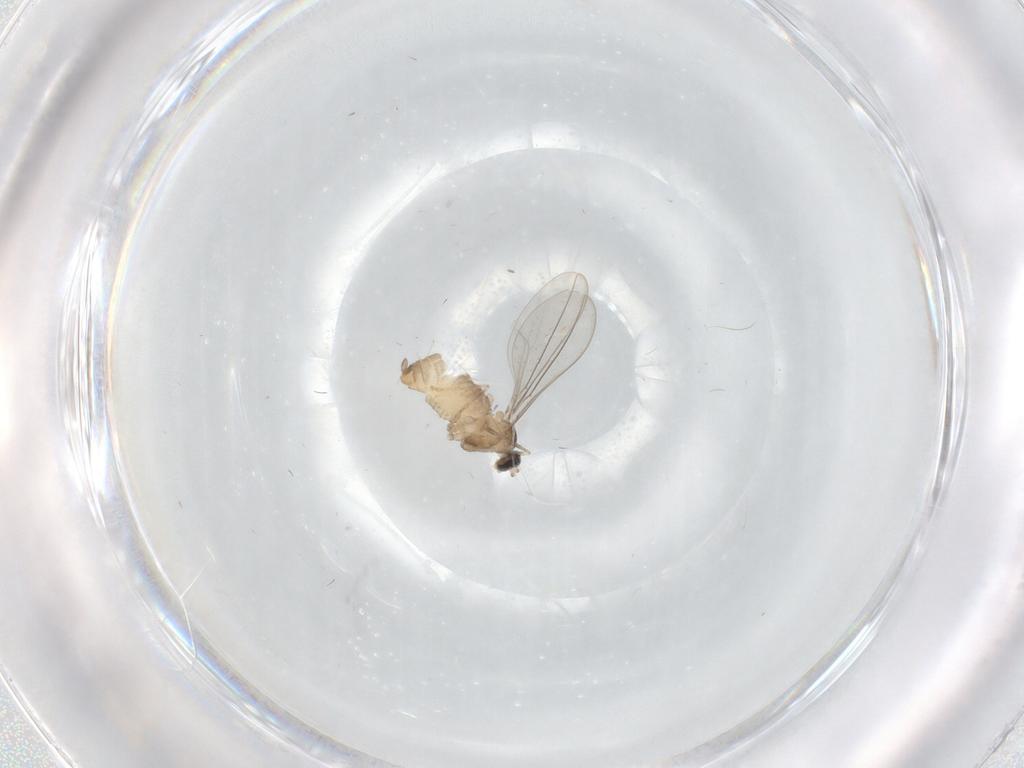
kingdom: Animalia
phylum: Arthropoda
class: Insecta
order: Diptera
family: Cecidomyiidae
